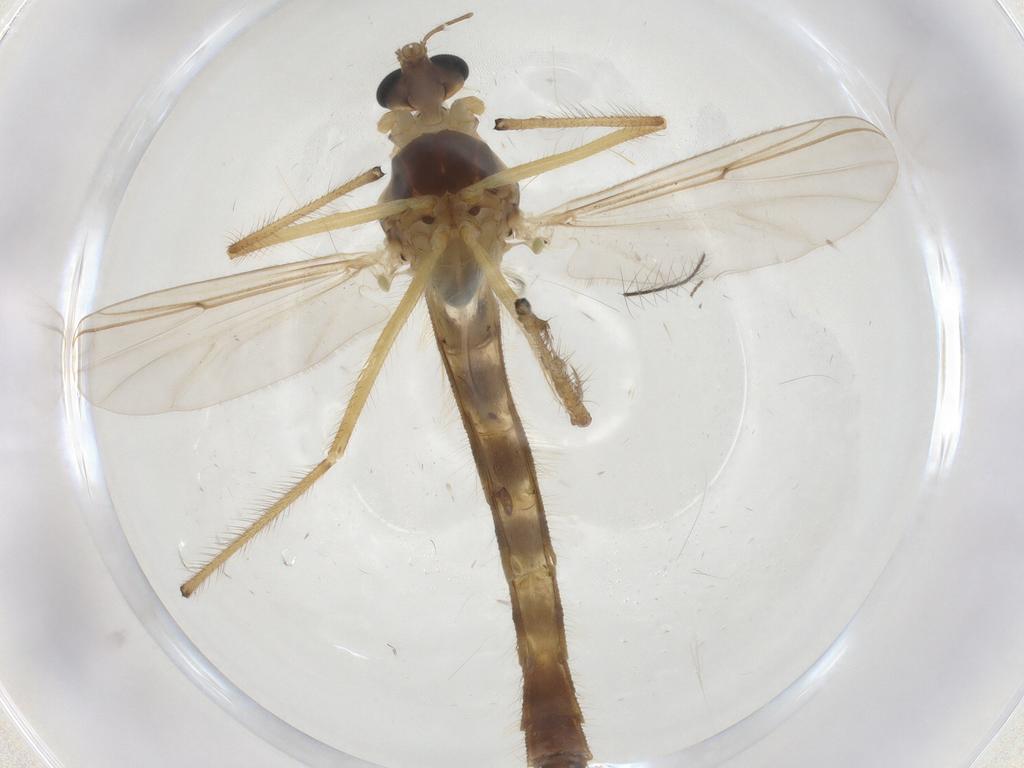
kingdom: Animalia
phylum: Arthropoda
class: Insecta
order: Diptera
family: Chironomidae
